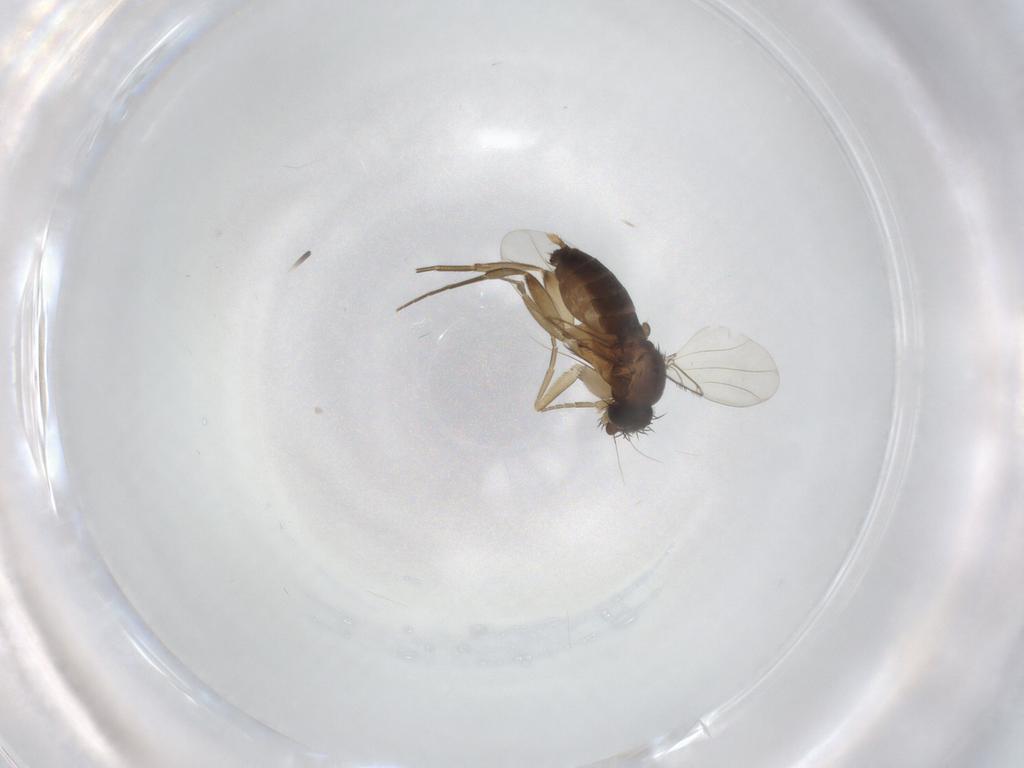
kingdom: Animalia
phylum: Arthropoda
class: Insecta
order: Diptera
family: Phoridae
